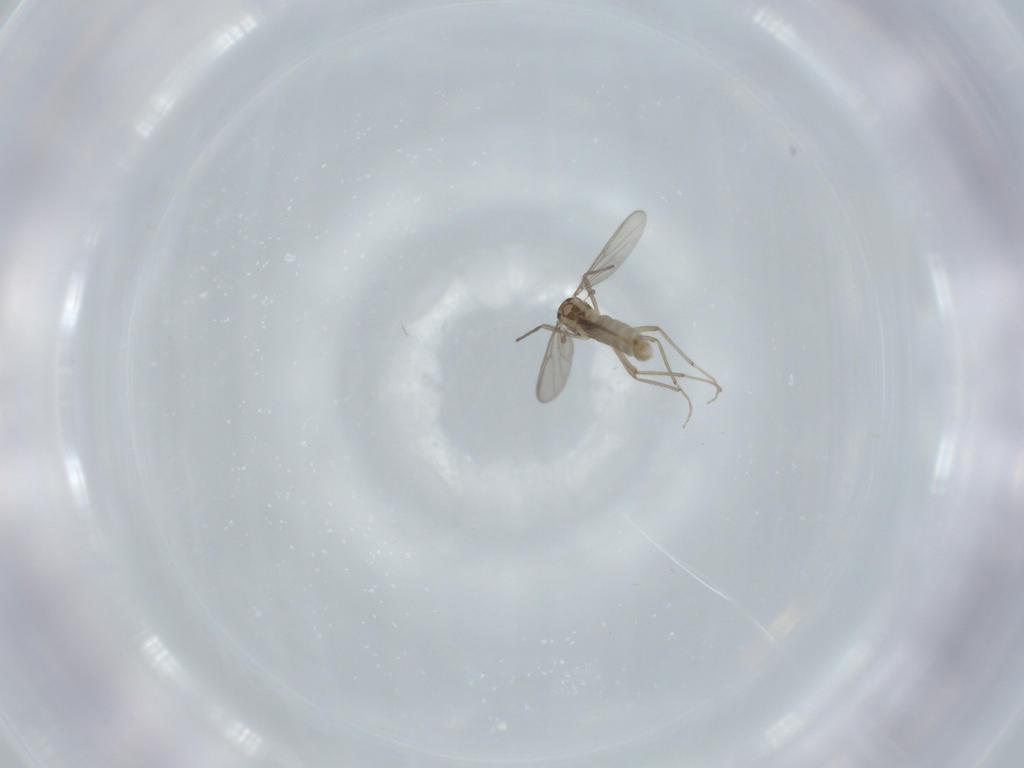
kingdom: Animalia
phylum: Arthropoda
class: Insecta
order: Diptera
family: Chironomidae
